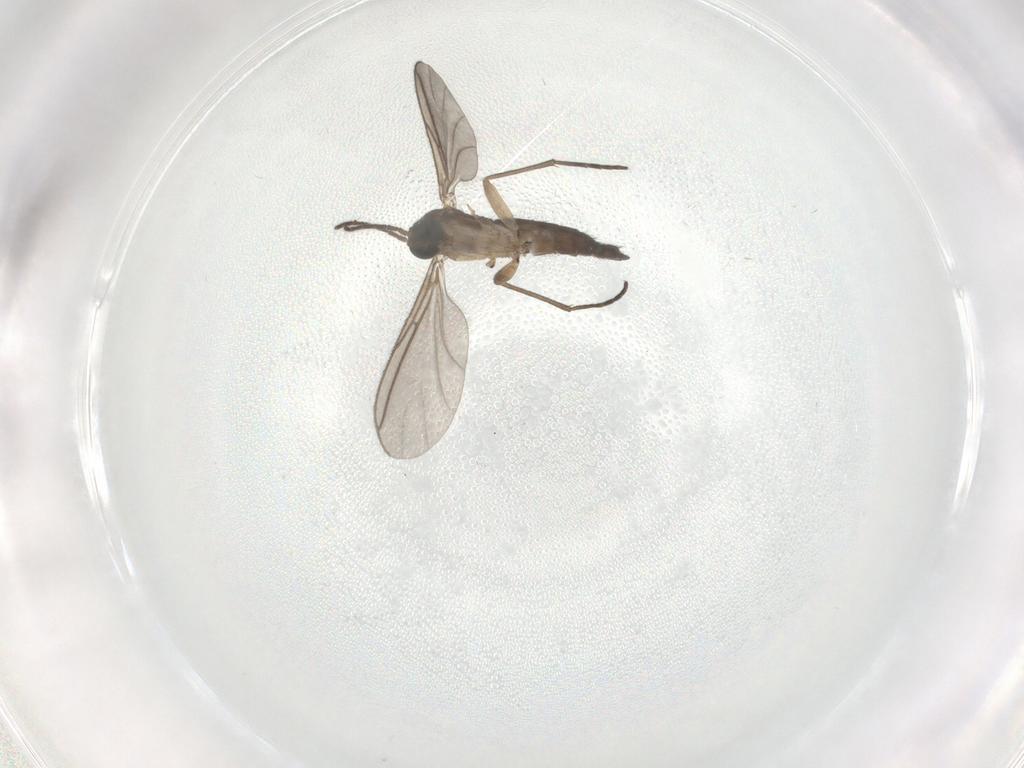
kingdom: Animalia
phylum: Arthropoda
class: Insecta
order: Diptera
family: Sciaridae
